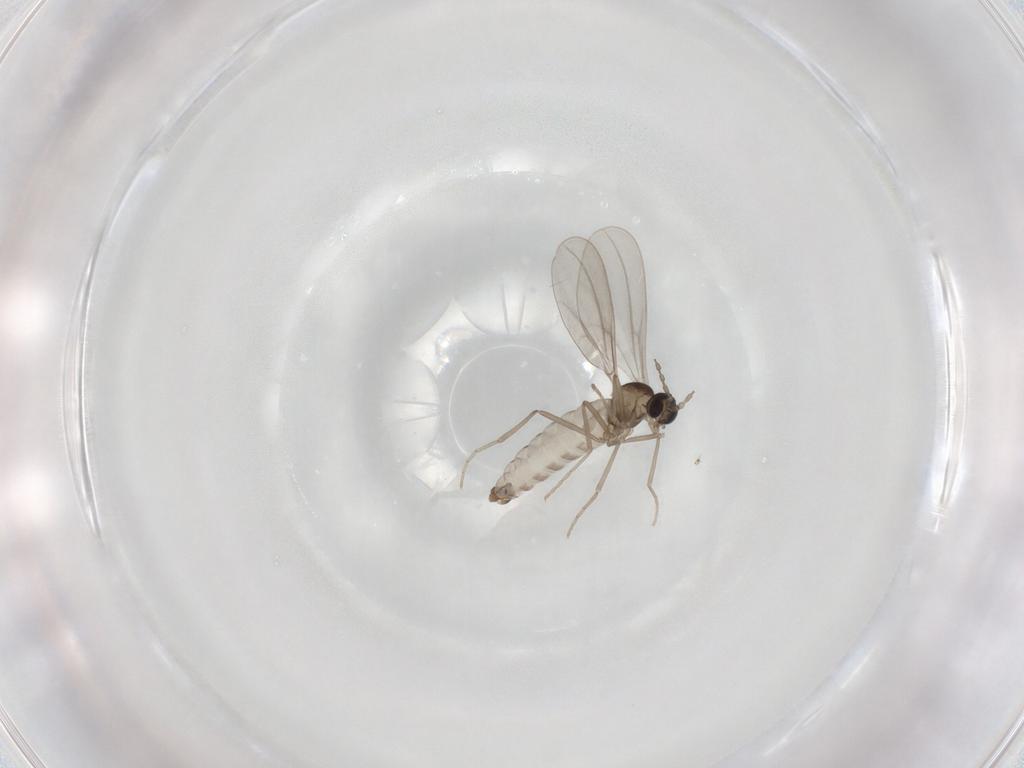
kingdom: Animalia
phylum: Arthropoda
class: Insecta
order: Diptera
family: Cecidomyiidae
